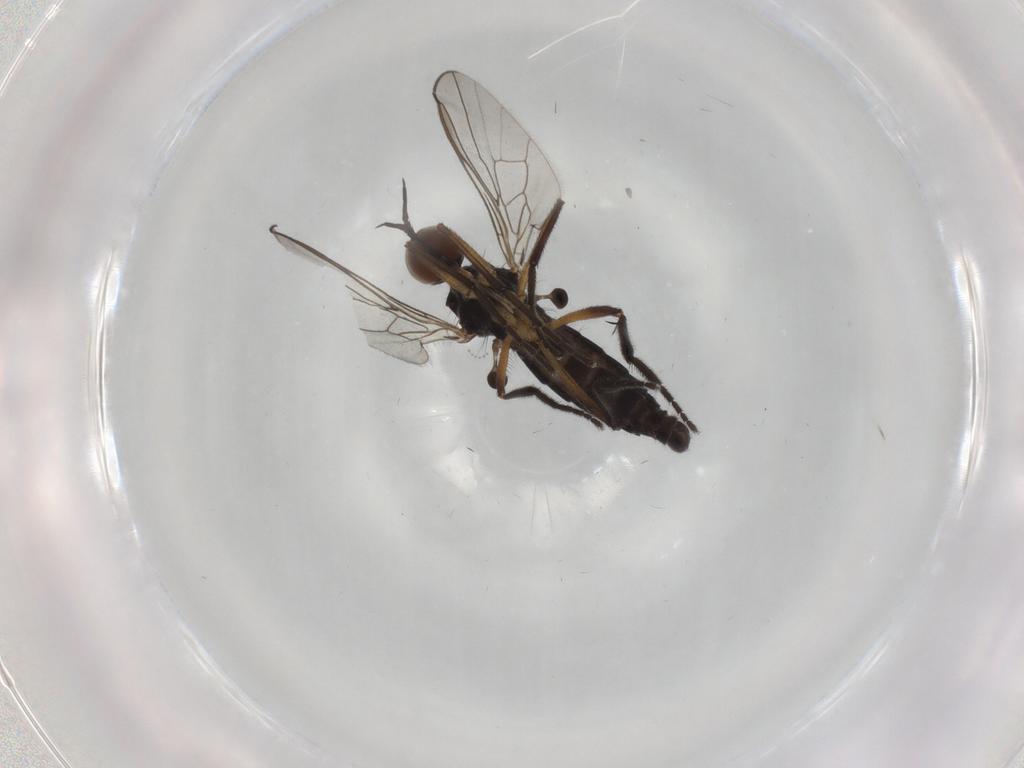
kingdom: Animalia
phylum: Arthropoda
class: Insecta
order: Diptera
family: Empididae
